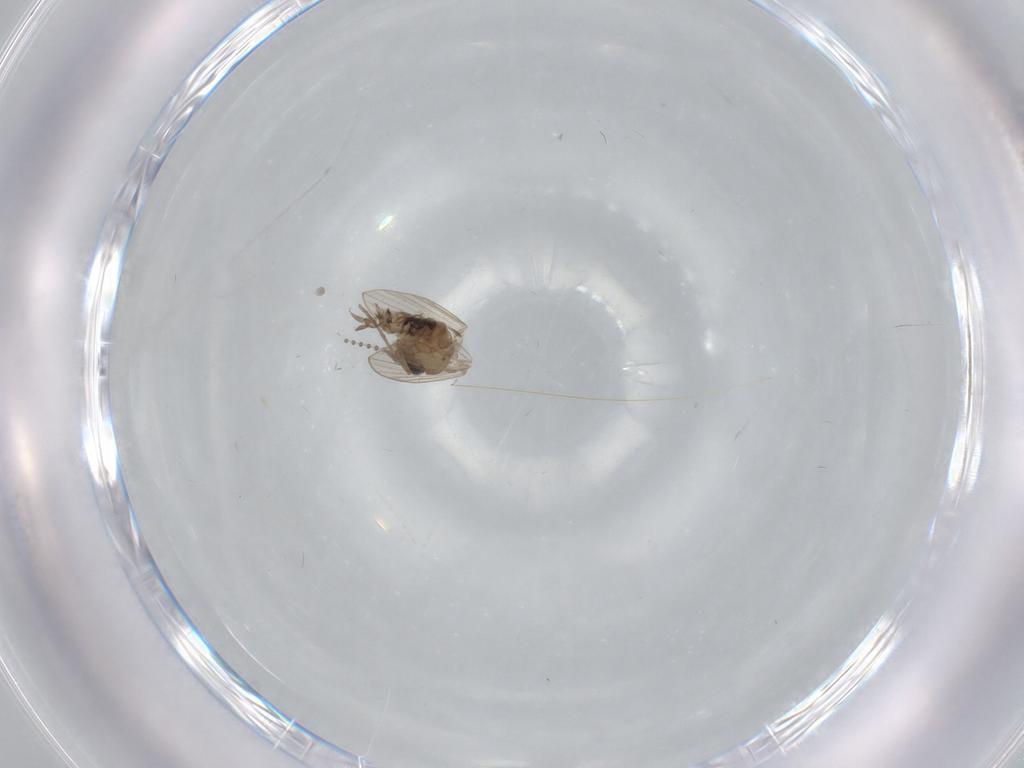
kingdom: Animalia
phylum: Arthropoda
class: Insecta
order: Diptera
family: Psychodidae
